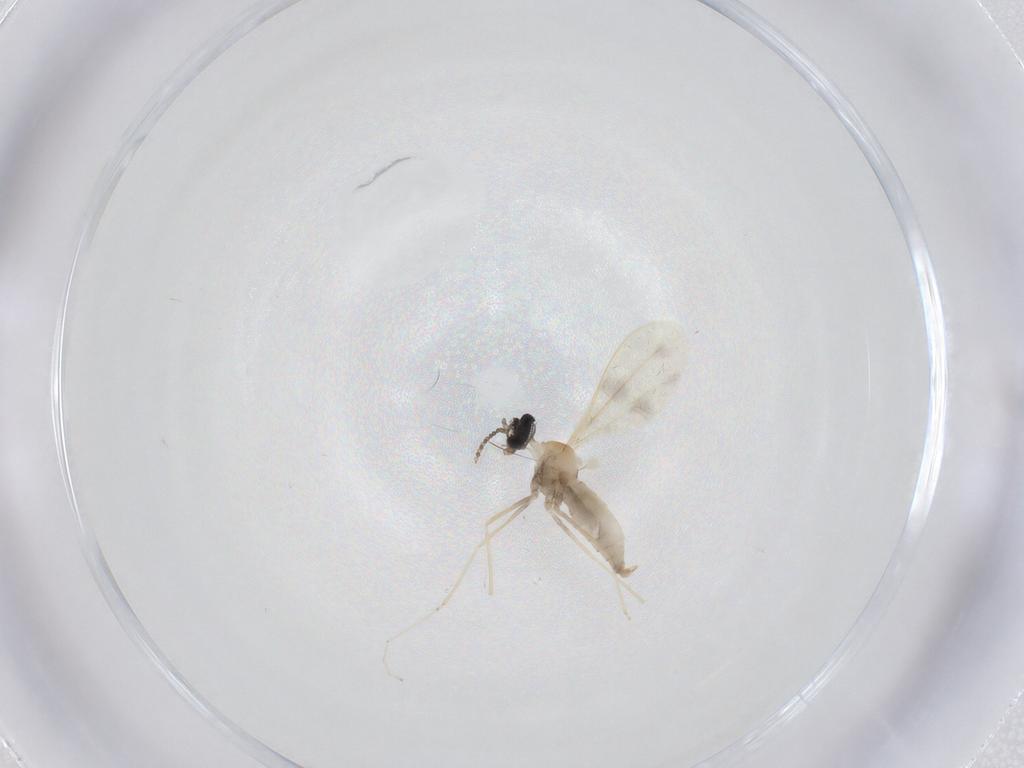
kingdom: Animalia
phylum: Arthropoda
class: Insecta
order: Diptera
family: Cecidomyiidae
